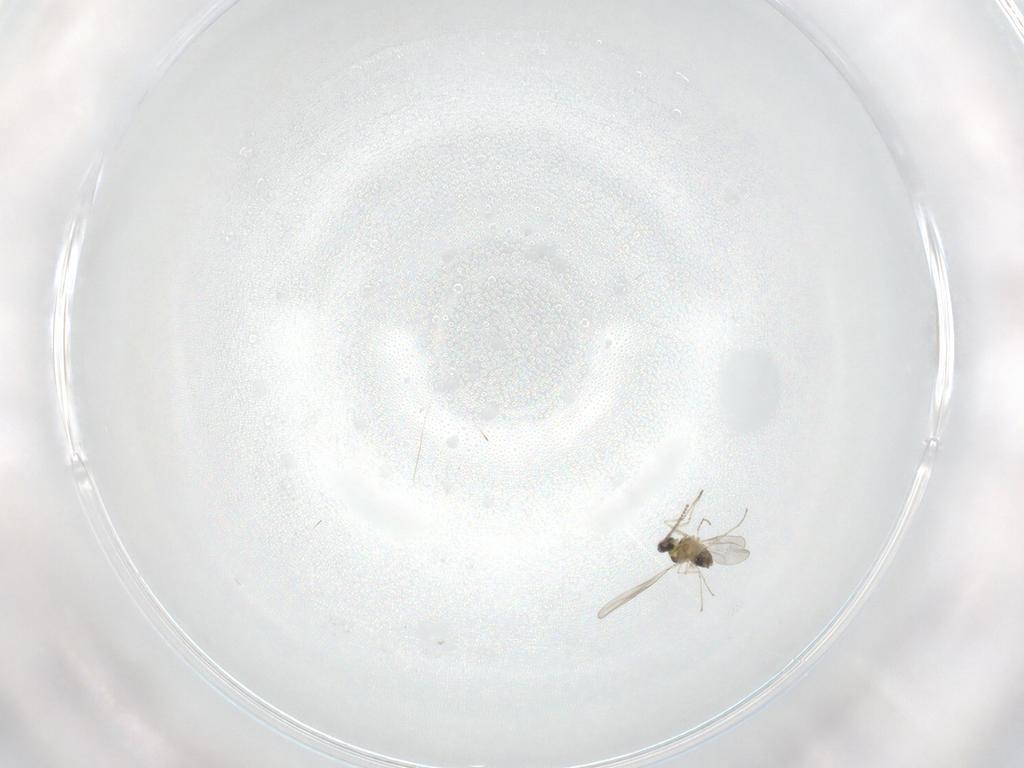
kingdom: Animalia
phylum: Arthropoda
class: Insecta
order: Diptera
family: Cecidomyiidae
